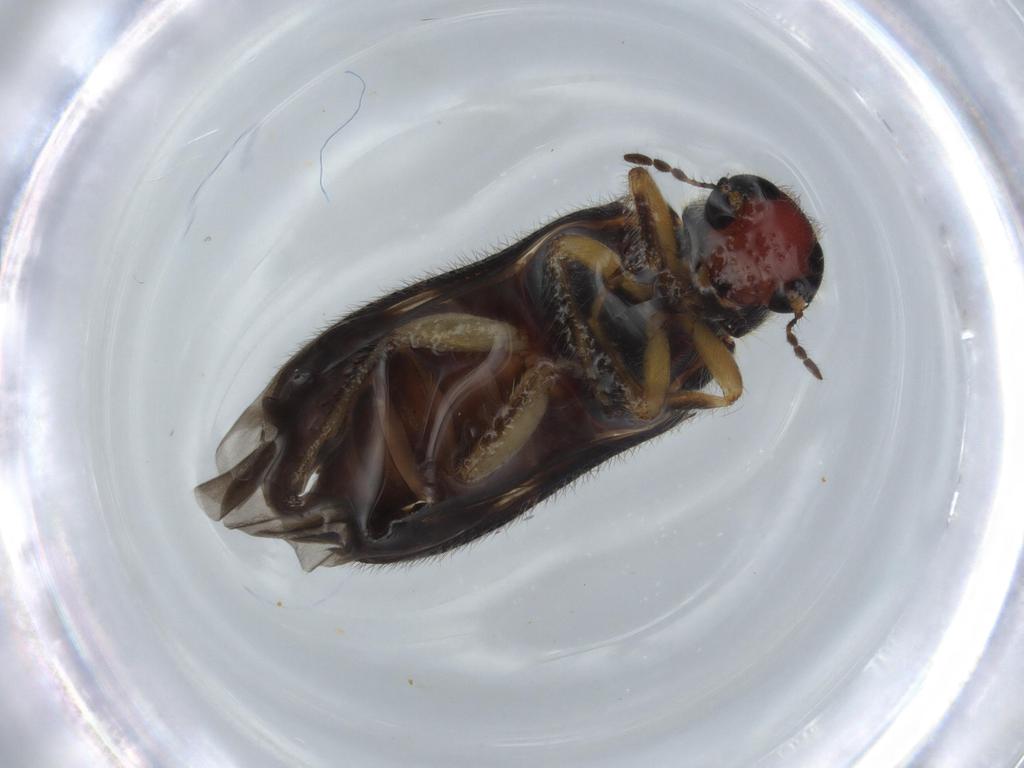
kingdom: Animalia
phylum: Arthropoda
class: Insecta
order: Coleoptera
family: Cleridae
